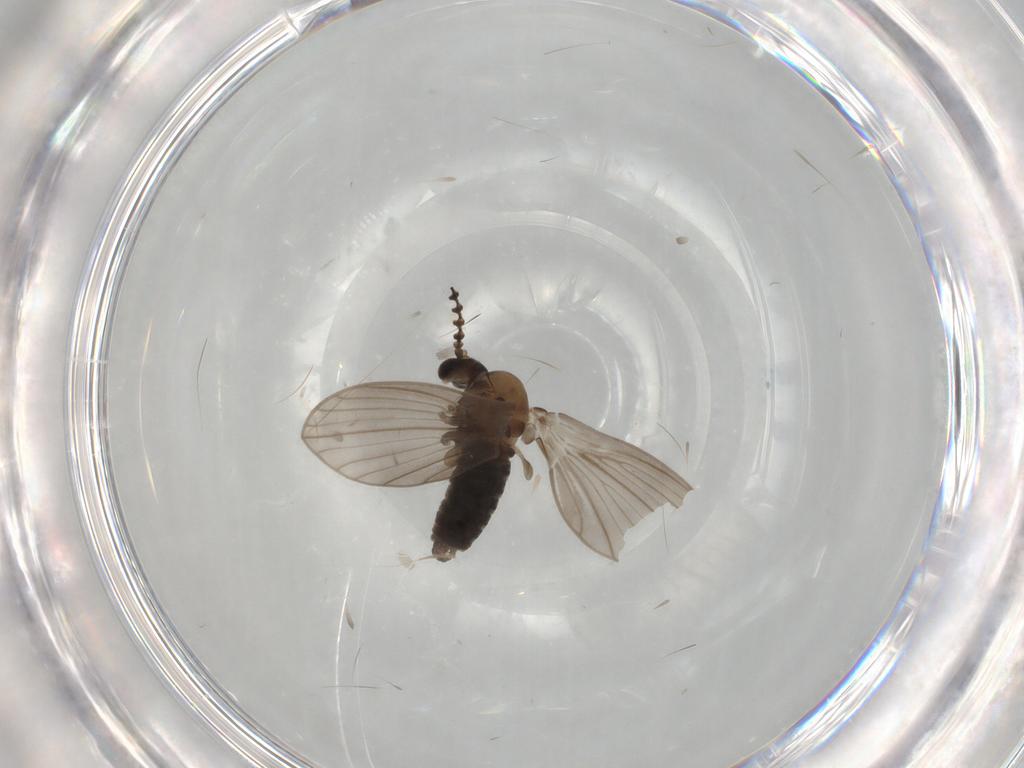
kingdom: Animalia
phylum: Arthropoda
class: Insecta
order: Diptera
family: Psychodidae
